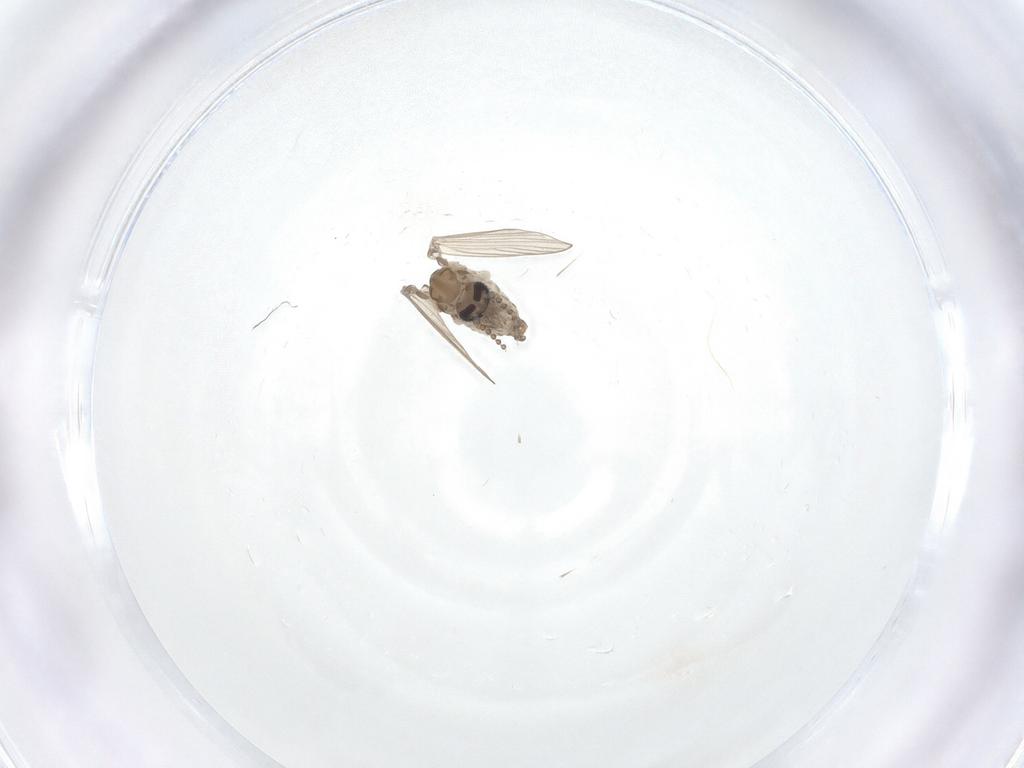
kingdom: Animalia
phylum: Arthropoda
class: Insecta
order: Diptera
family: Psychodidae
